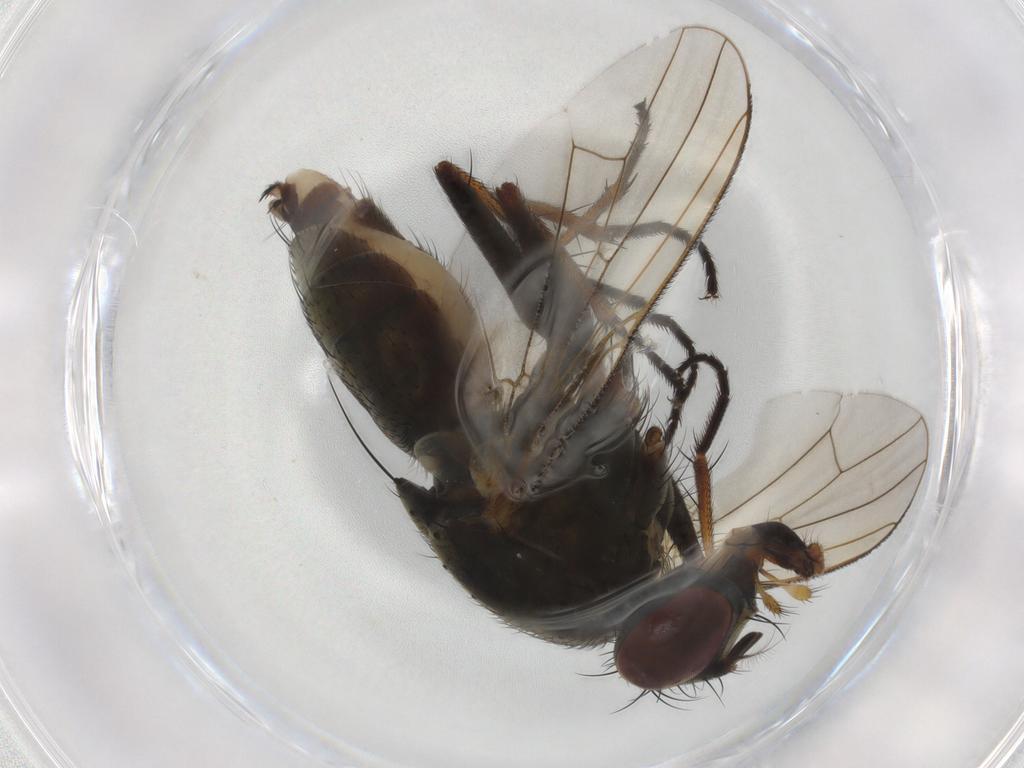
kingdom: Animalia
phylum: Arthropoda
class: Insecta
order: Diptera
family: Muscidae
